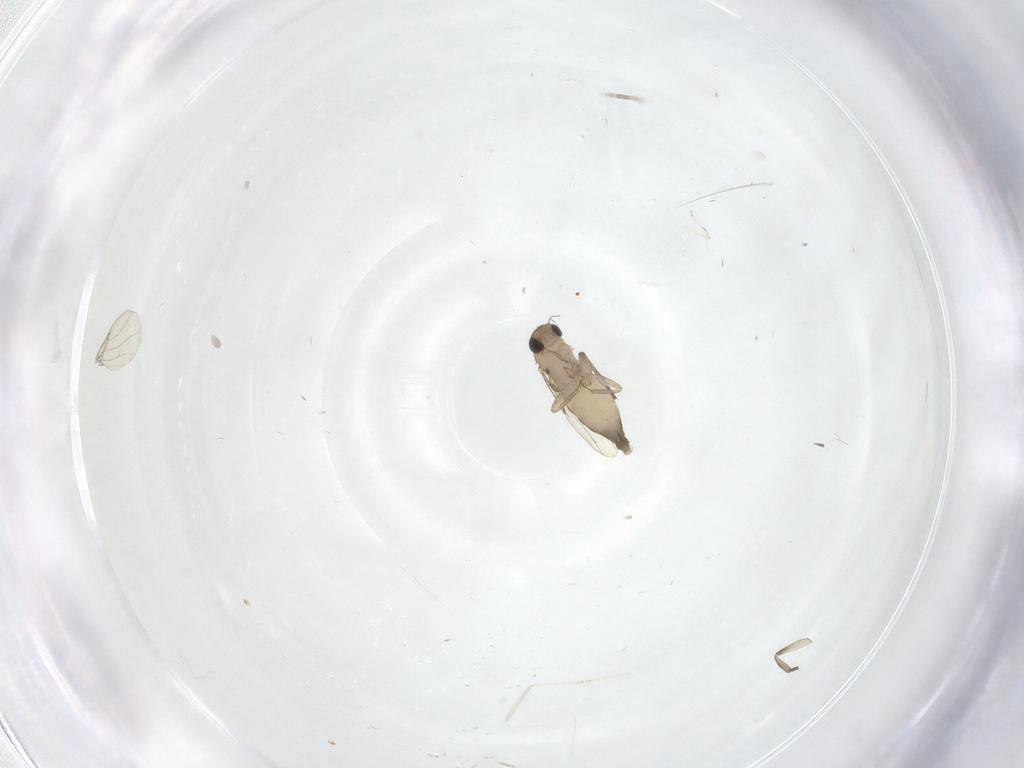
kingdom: Animalia
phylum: Arthropoda
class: Insecta
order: Diptera
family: Phoridae
